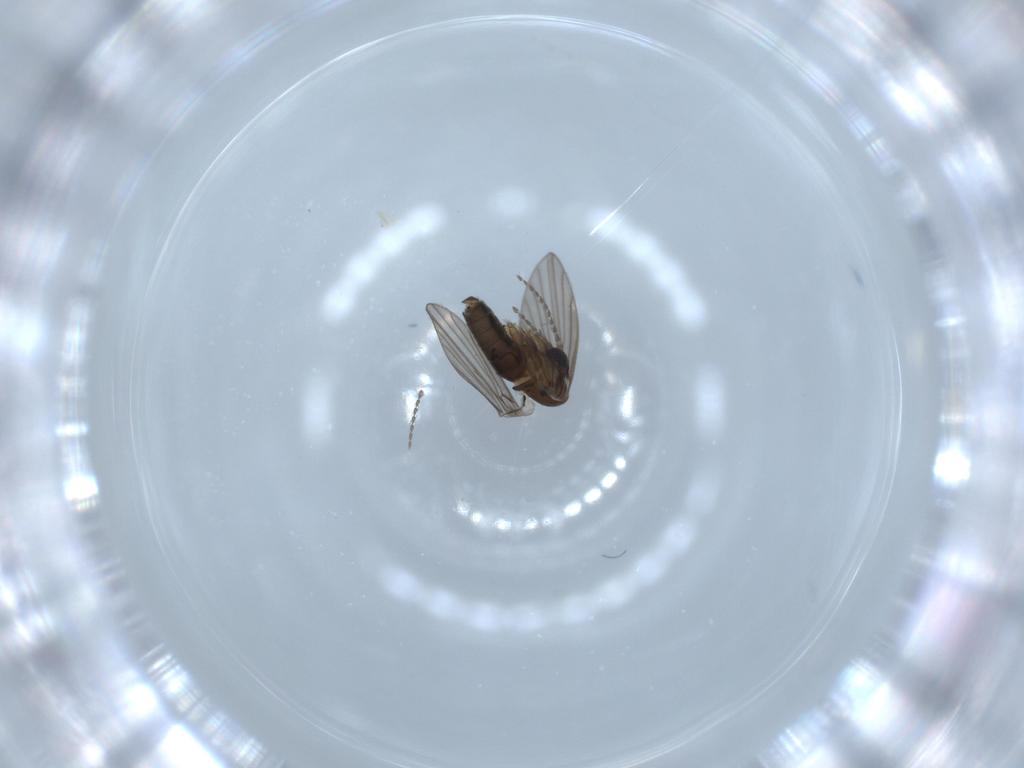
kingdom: Animalia
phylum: Arthropoda
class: Insecta
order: Diptera
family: Psychodidae
